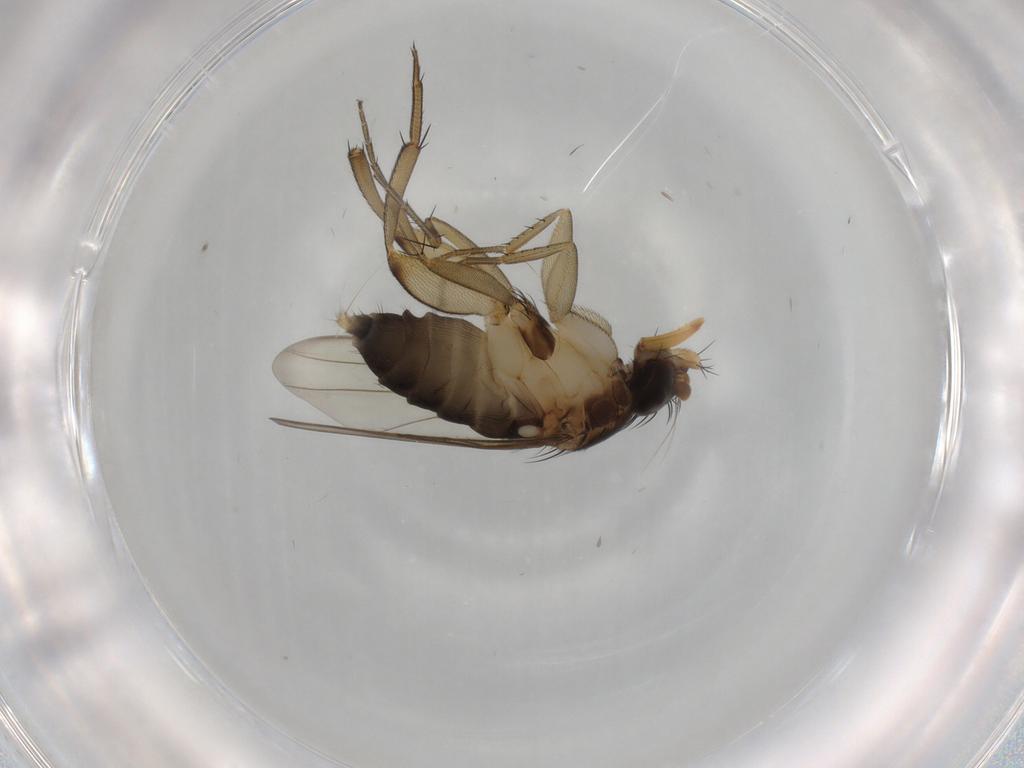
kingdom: Animalia
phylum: Arthropoda
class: Insecta
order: Diptera
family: Phoridae
